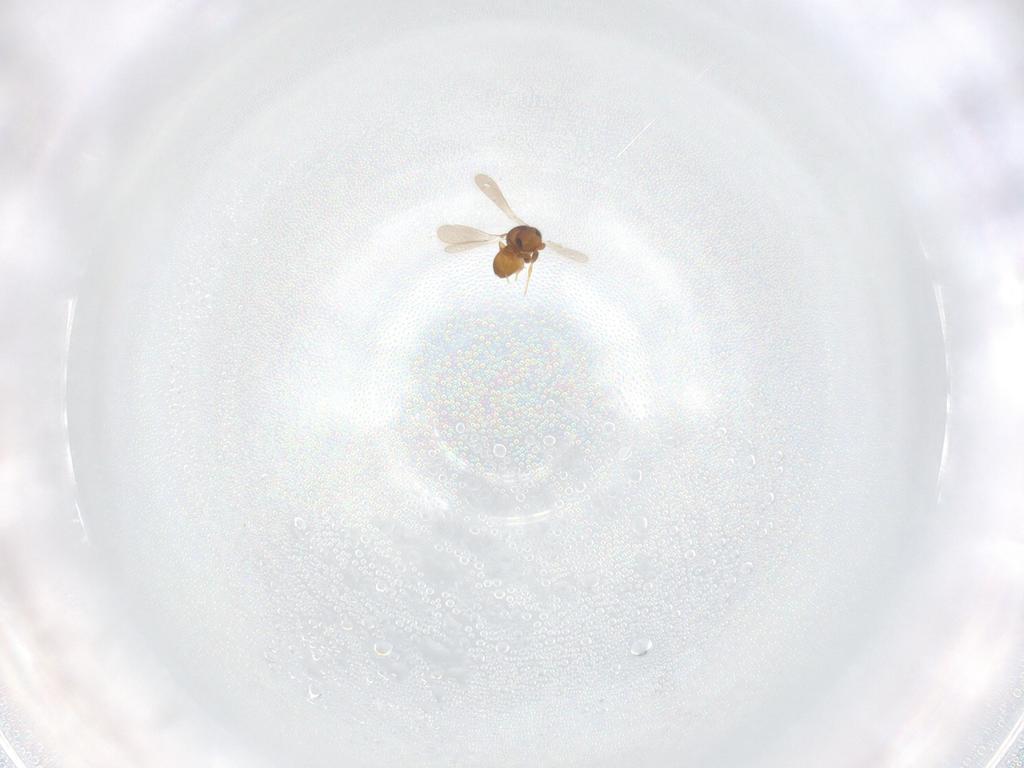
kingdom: Animalia
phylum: Arthropoda
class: Insecta
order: Hymenoptera
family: Platygastridae
